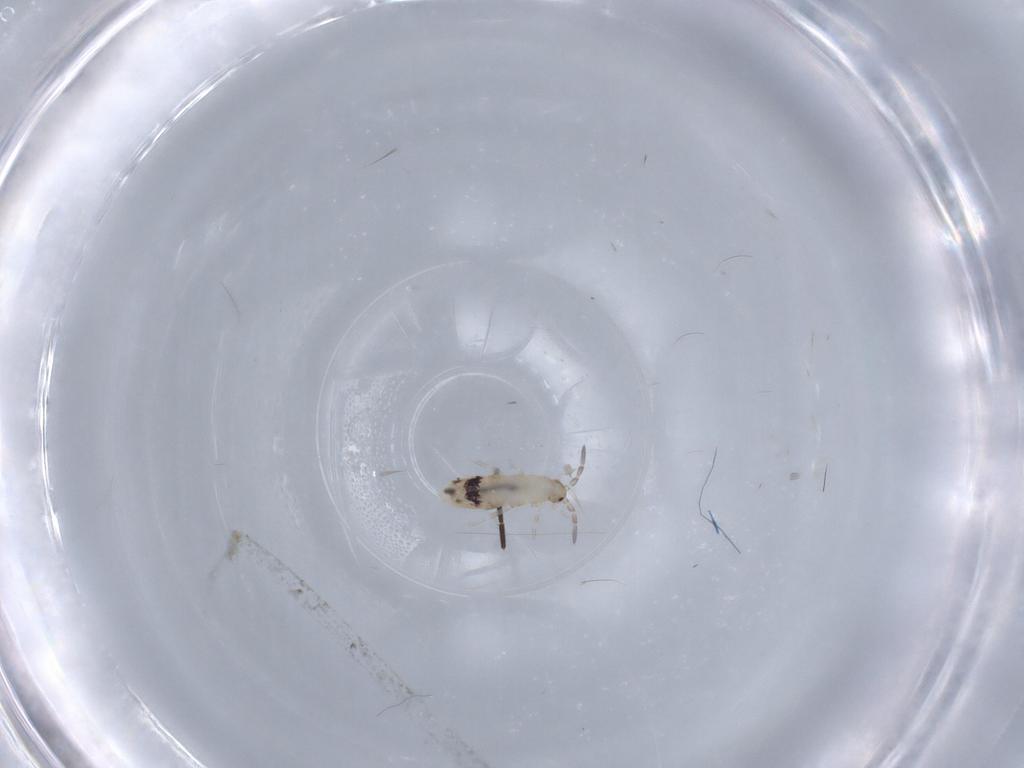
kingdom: Animalia
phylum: Arthropoda
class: Collembola
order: Entomobryomorpha
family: Entomobryidae
